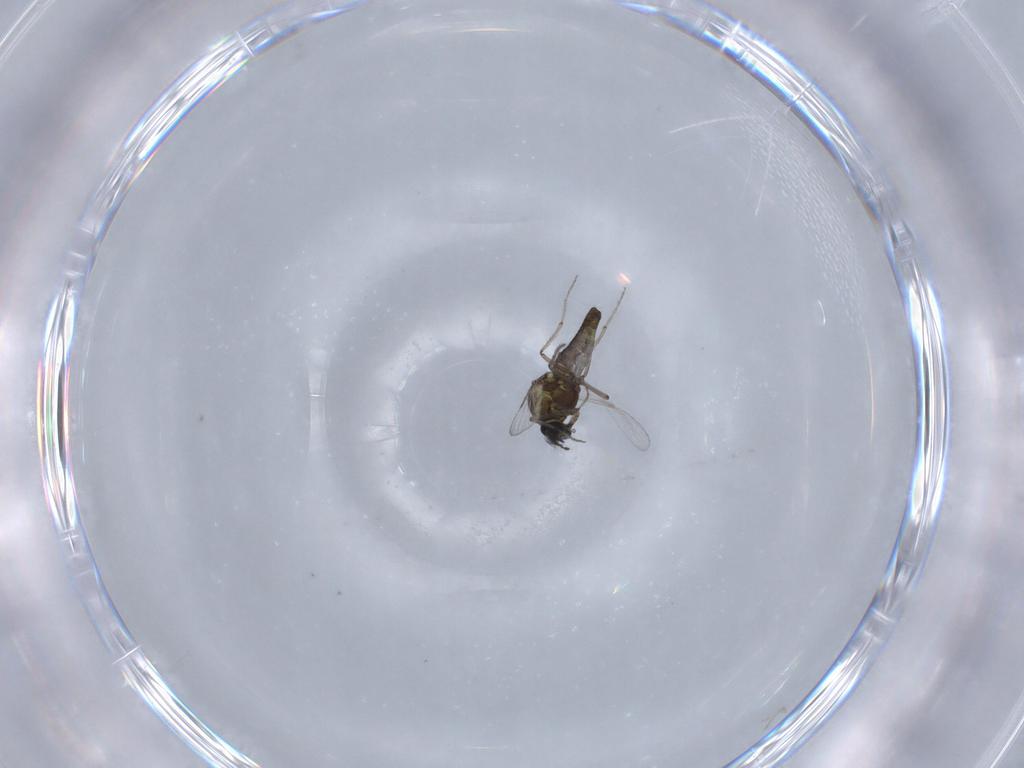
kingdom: Animalia
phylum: Arthropoda
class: Insecta
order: Diptera
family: Ceratopogonidae
